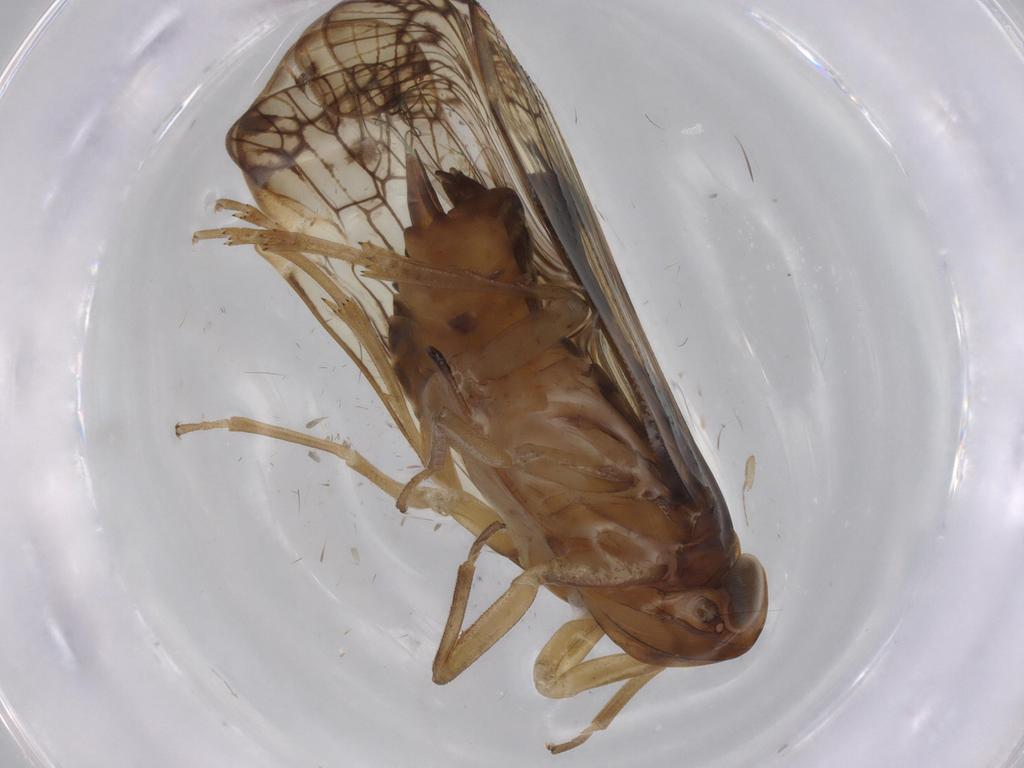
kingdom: Animalia
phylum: Arthropoda
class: Insecta
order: Hemiptera
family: Cixiidae
